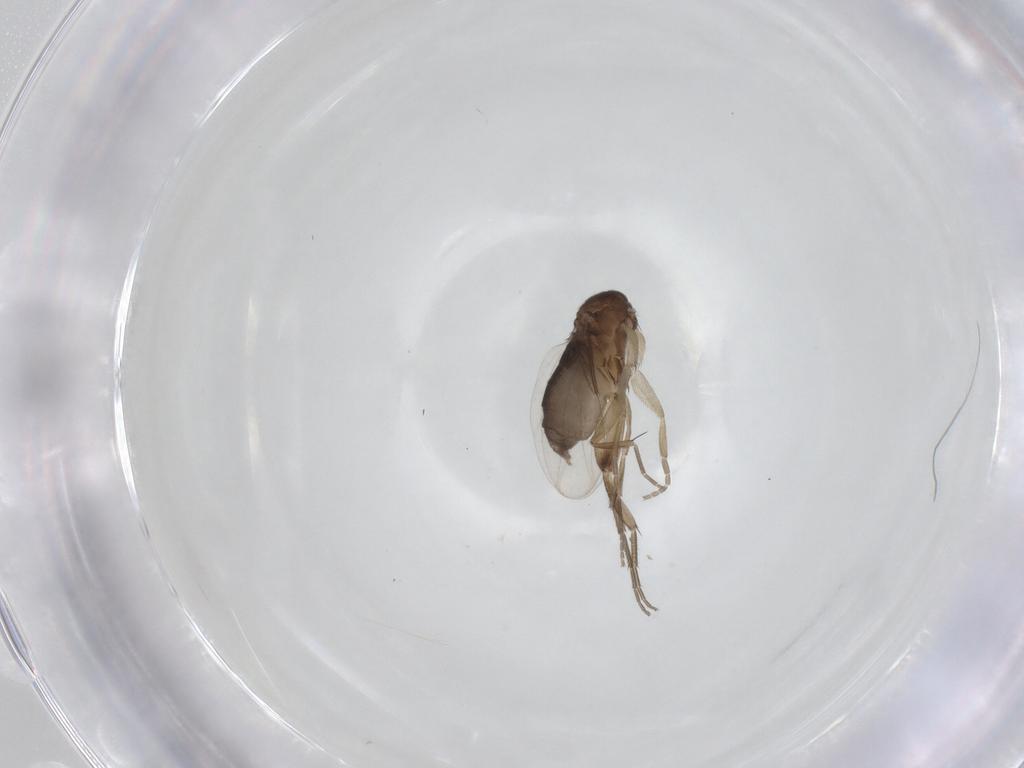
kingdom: Animalia
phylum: Arthropoda
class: Insecta
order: Diptera
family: Phoridae
